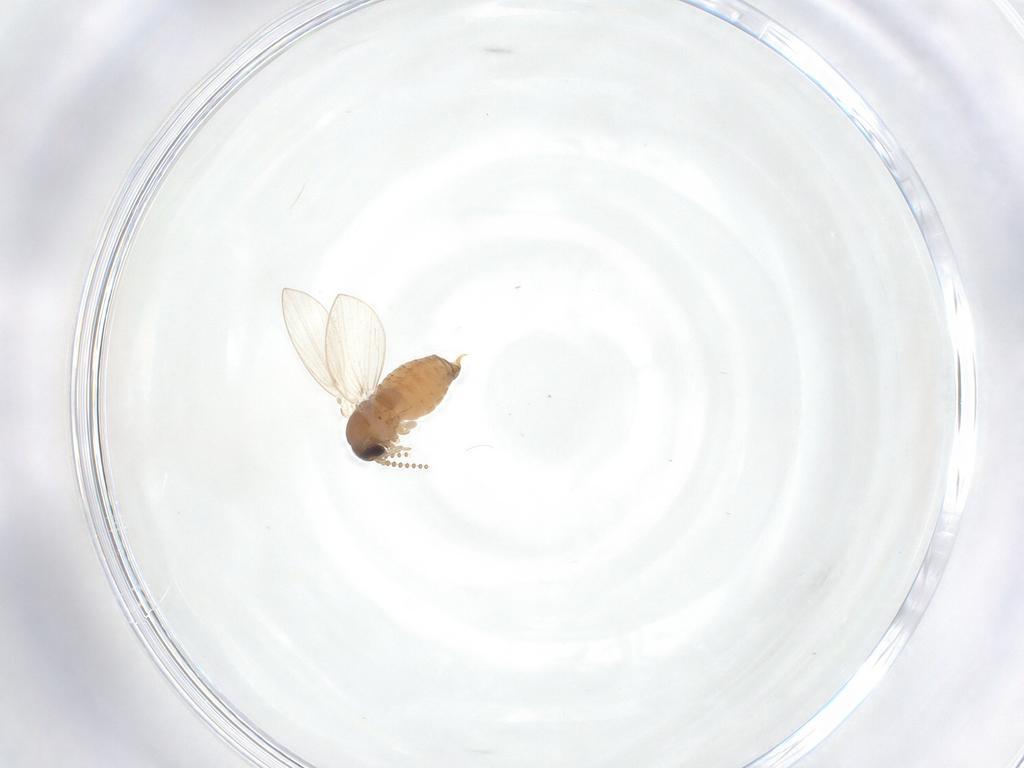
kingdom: Animalia
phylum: Arthropoda
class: Insecta
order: Diptera
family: Psychodidae
